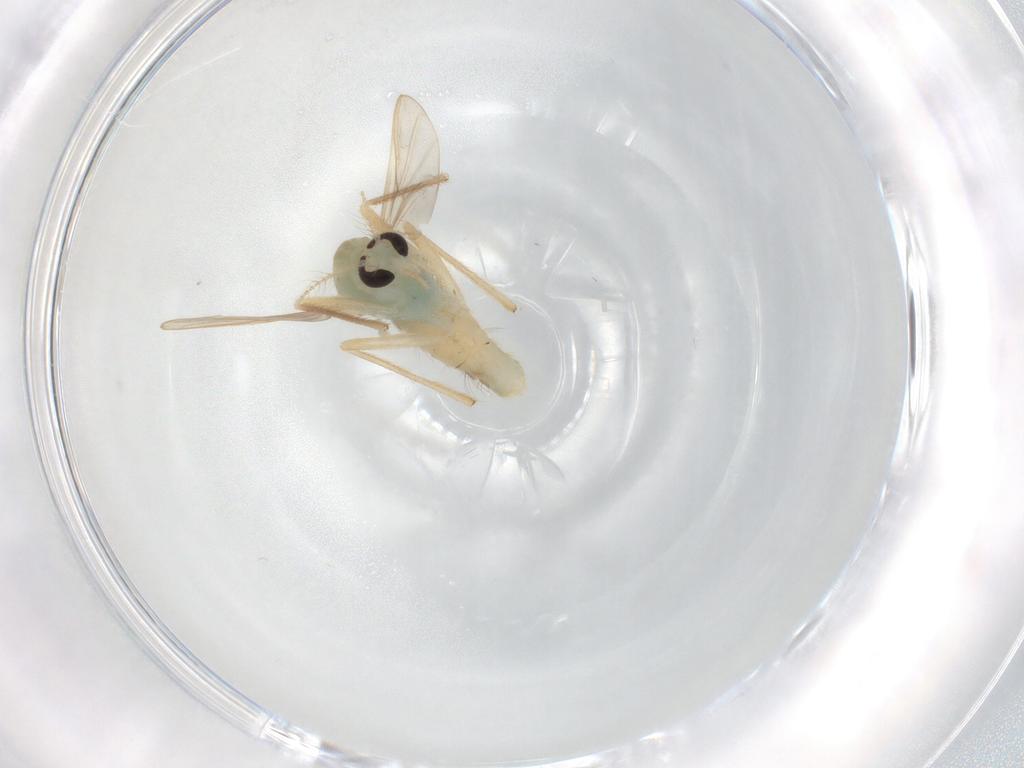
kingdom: Animalia
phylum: Arthropoda
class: Insecta
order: Diptera
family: Chironomidae
